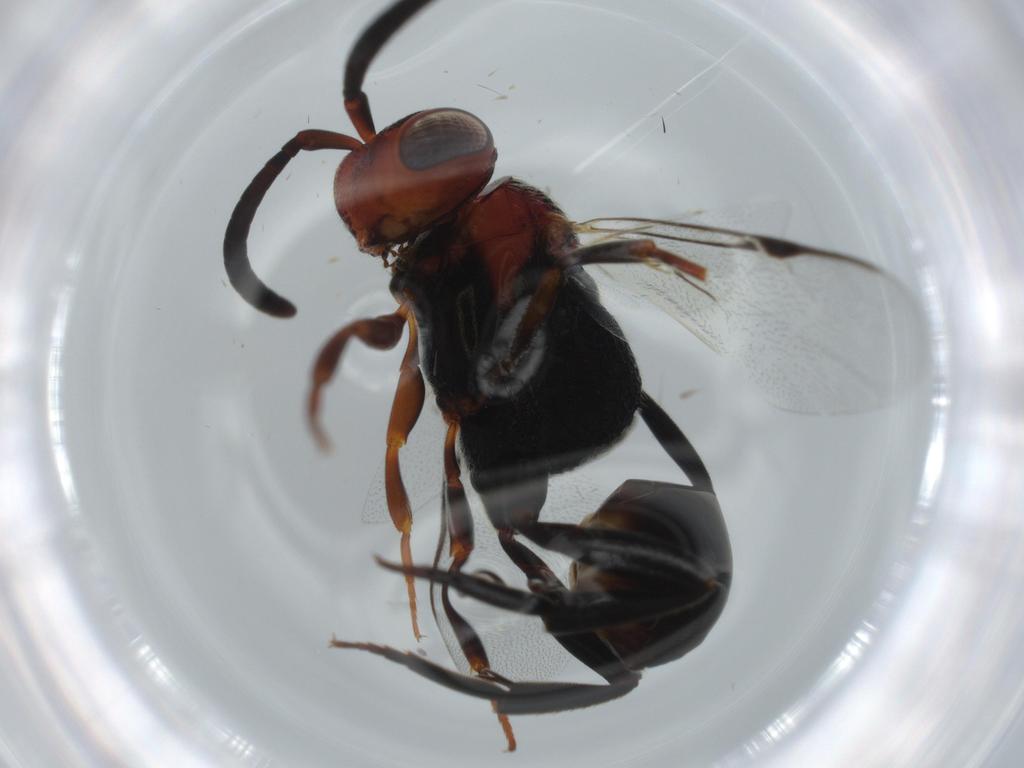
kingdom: Animalia
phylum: Arthropoda
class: Insecta
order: Hymenoptera
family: Evaniidae
